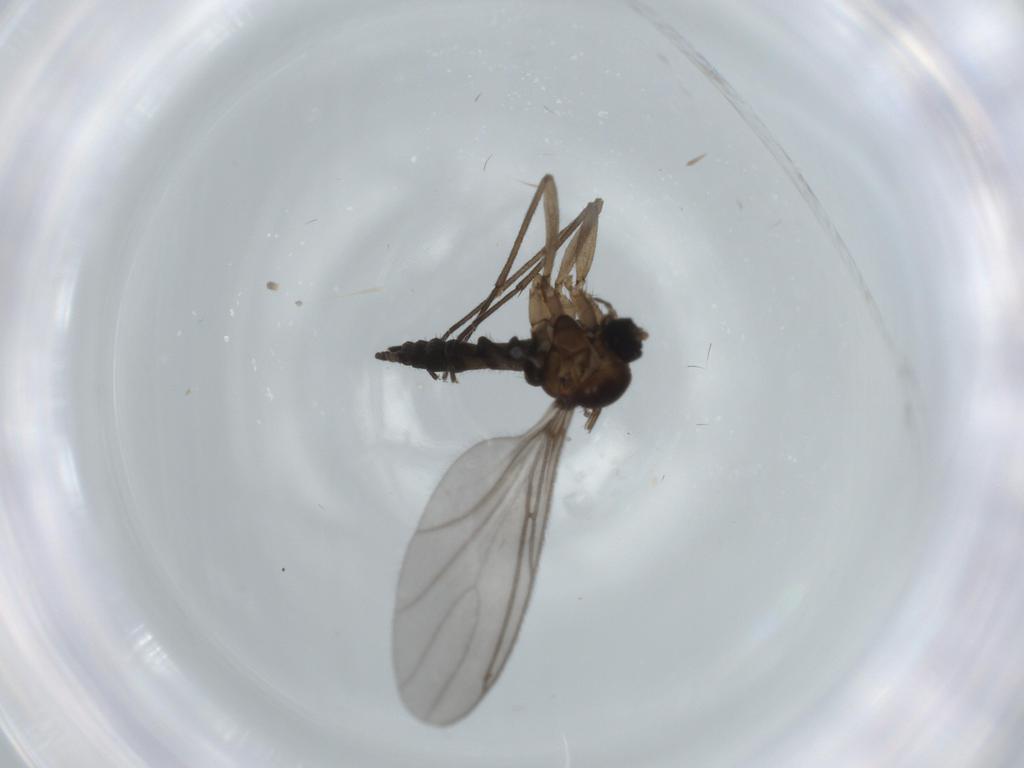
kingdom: Animalia
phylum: Arthropoda
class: Insecta
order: Diptera
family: Sciaridae
